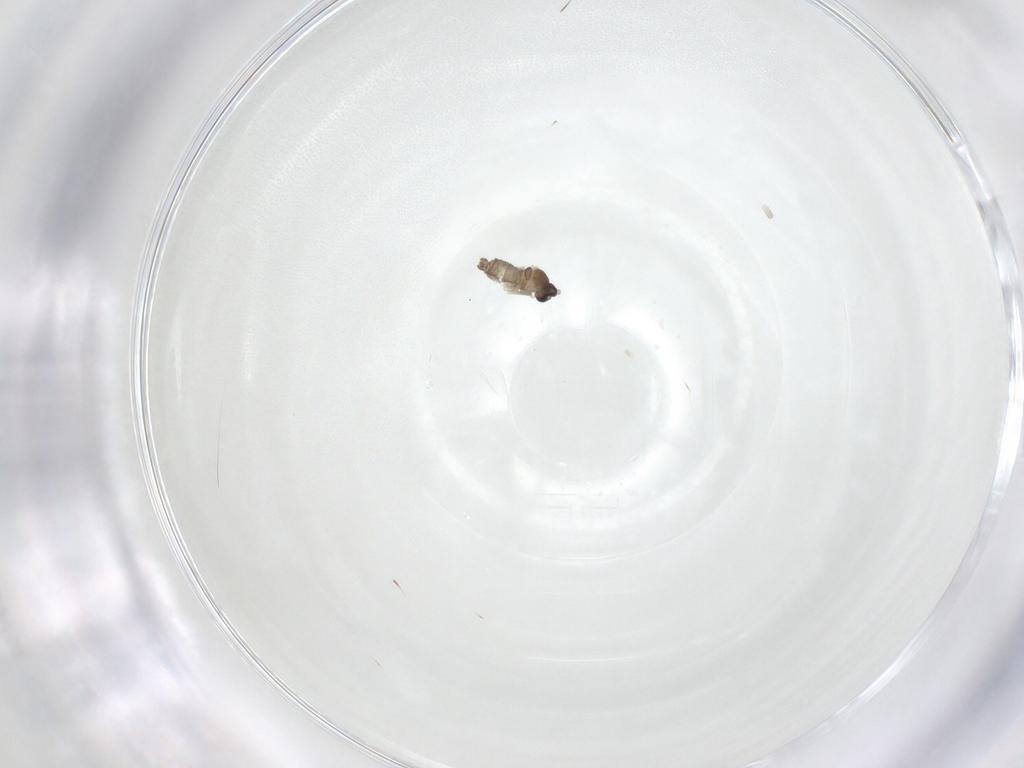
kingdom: Animalia
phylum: Arthropoda
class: Insecta
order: Diptera
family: Cecidomyiidae
